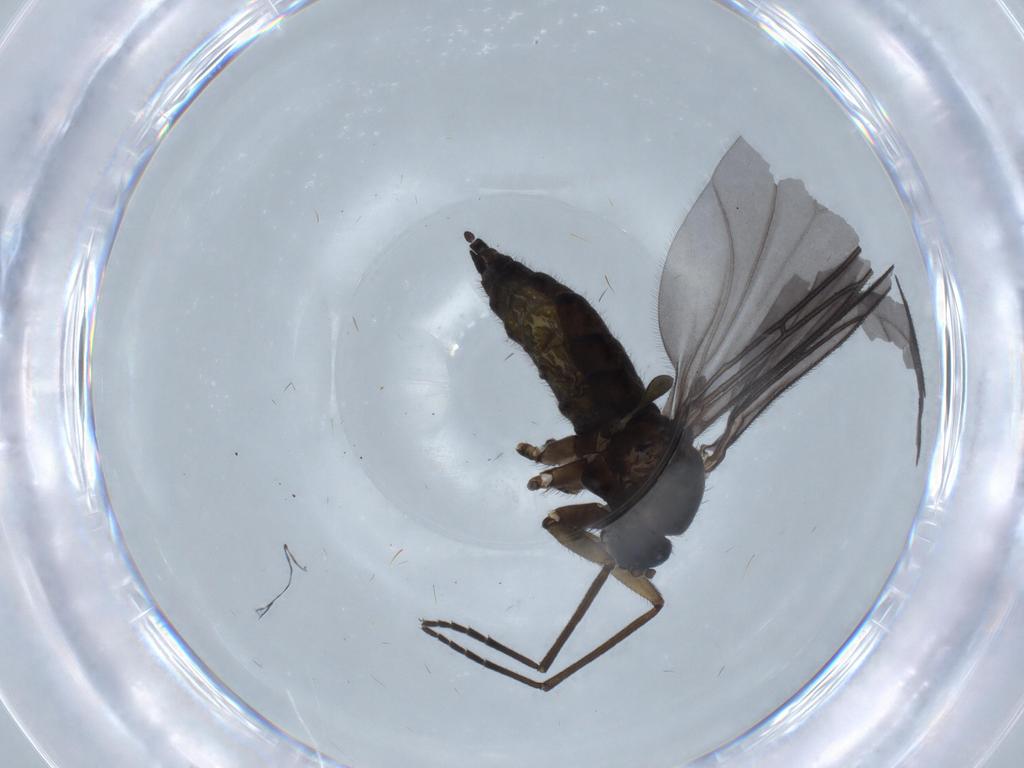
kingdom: Animalia
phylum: Arthropoda
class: Insecta
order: Diptera
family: Sciaridae
